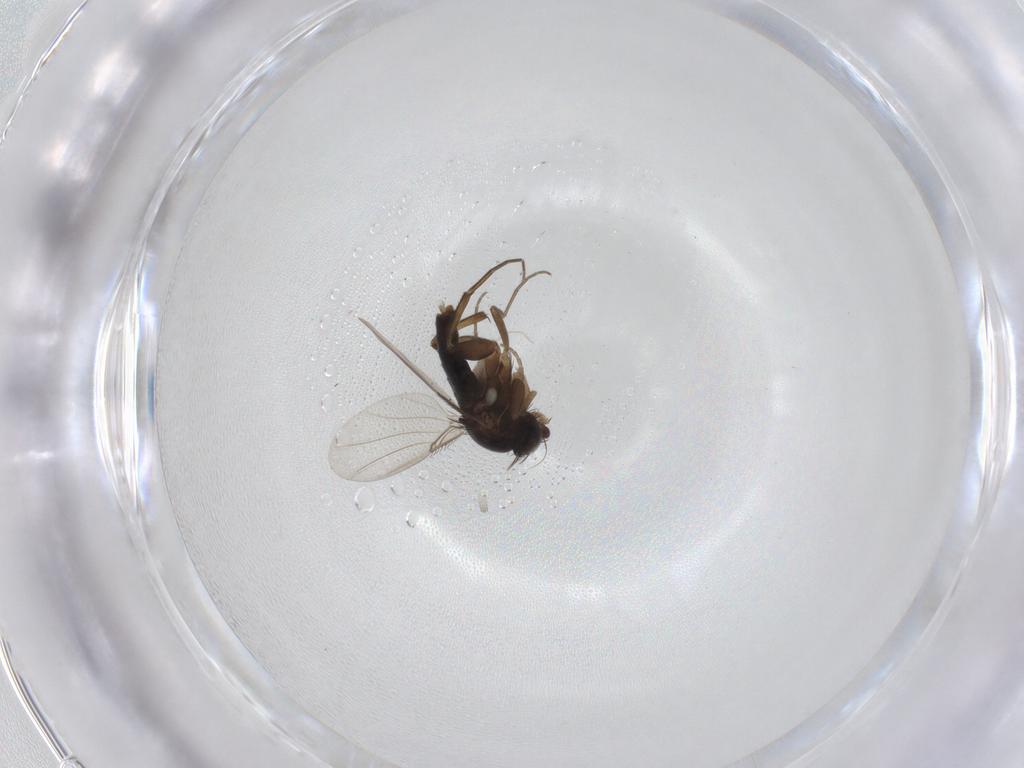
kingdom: Animalia
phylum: Arthropoda
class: Insecta
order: Diptera
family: Phoridae
